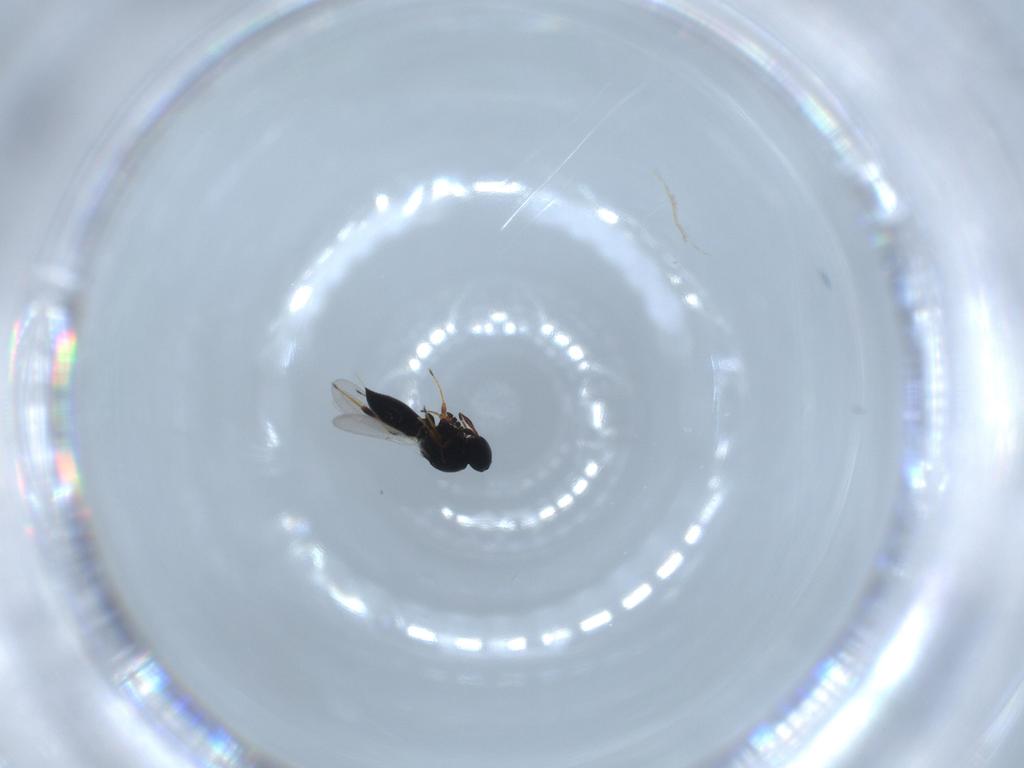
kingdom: Animalia
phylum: Arthropoda
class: Insecta
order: Hymenoptera
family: Platygastridae
